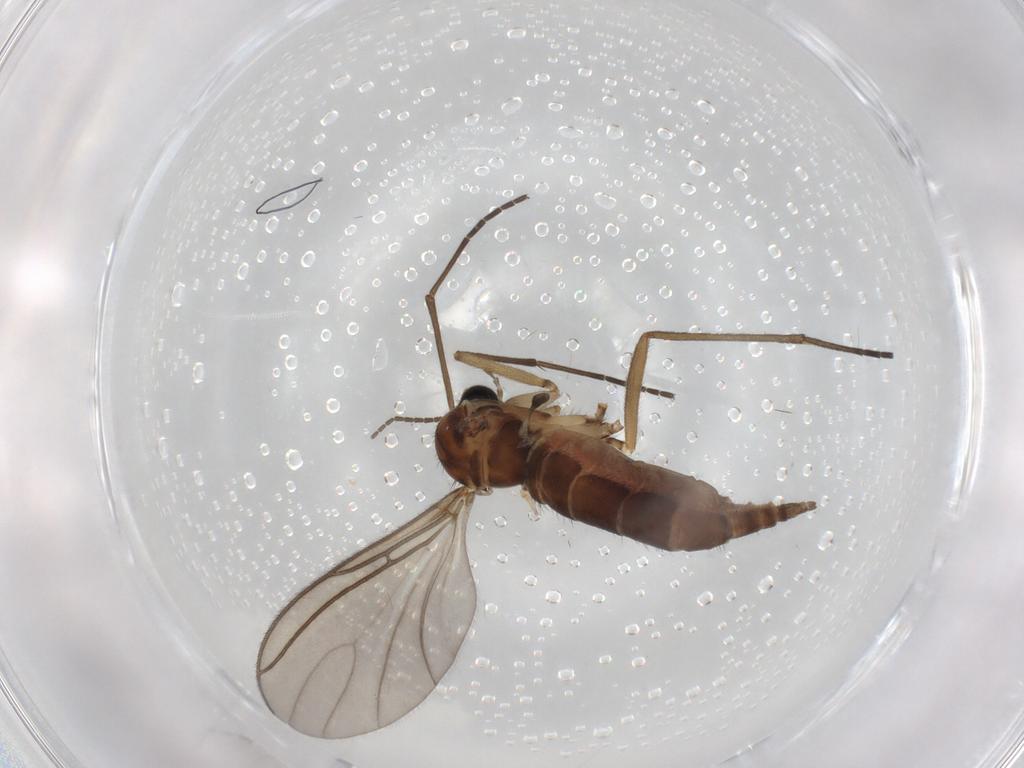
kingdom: Animalia
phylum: Arthropoda
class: Insecta
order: Diptera
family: Sciaridae
